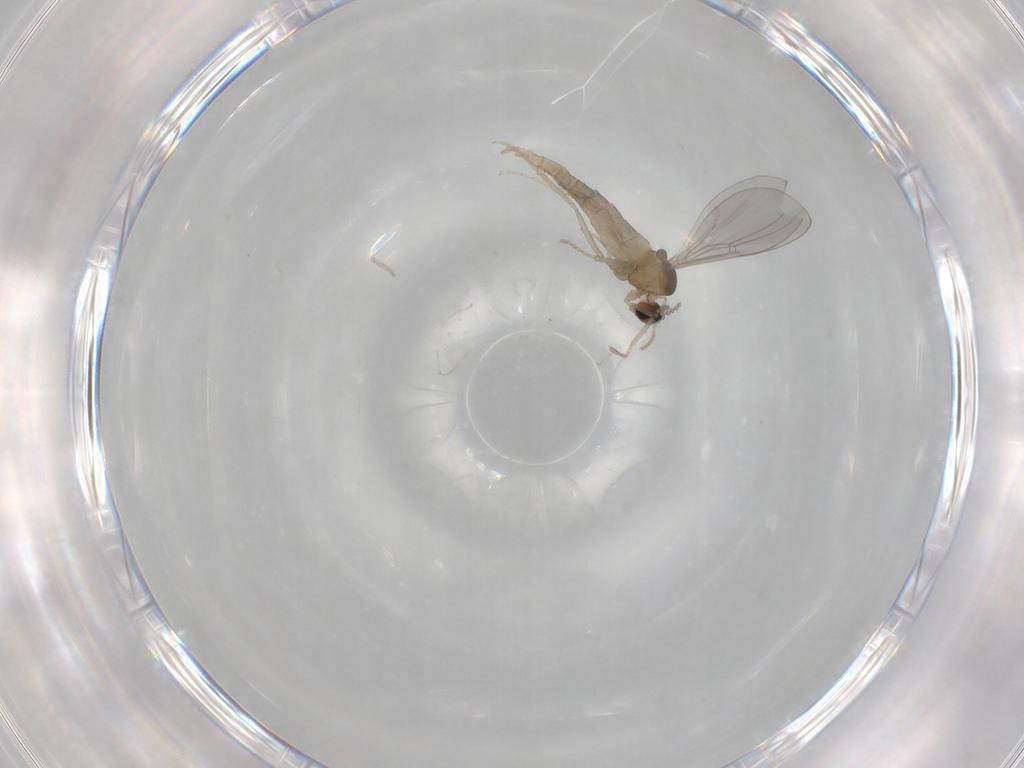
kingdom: Animalia
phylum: Arthropoda
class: Insecta
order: Diptera
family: Cecidomyiidae
